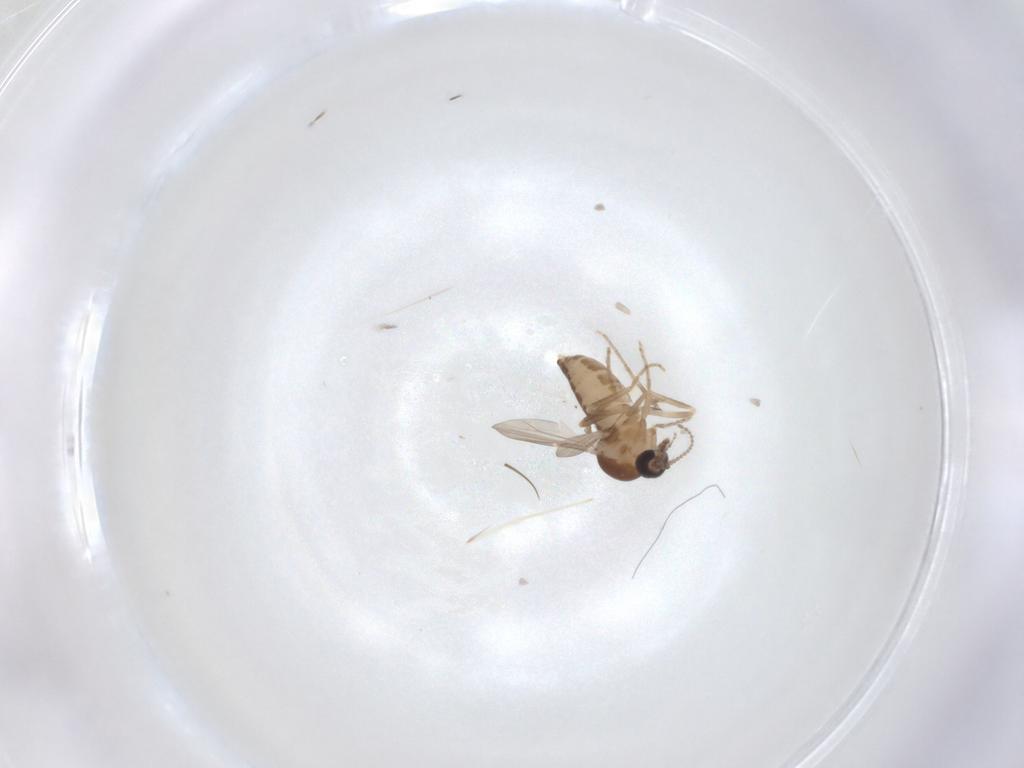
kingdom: Animalia
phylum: Arthropoda
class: Insecta
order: Diptera
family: Ceratopogonidae
